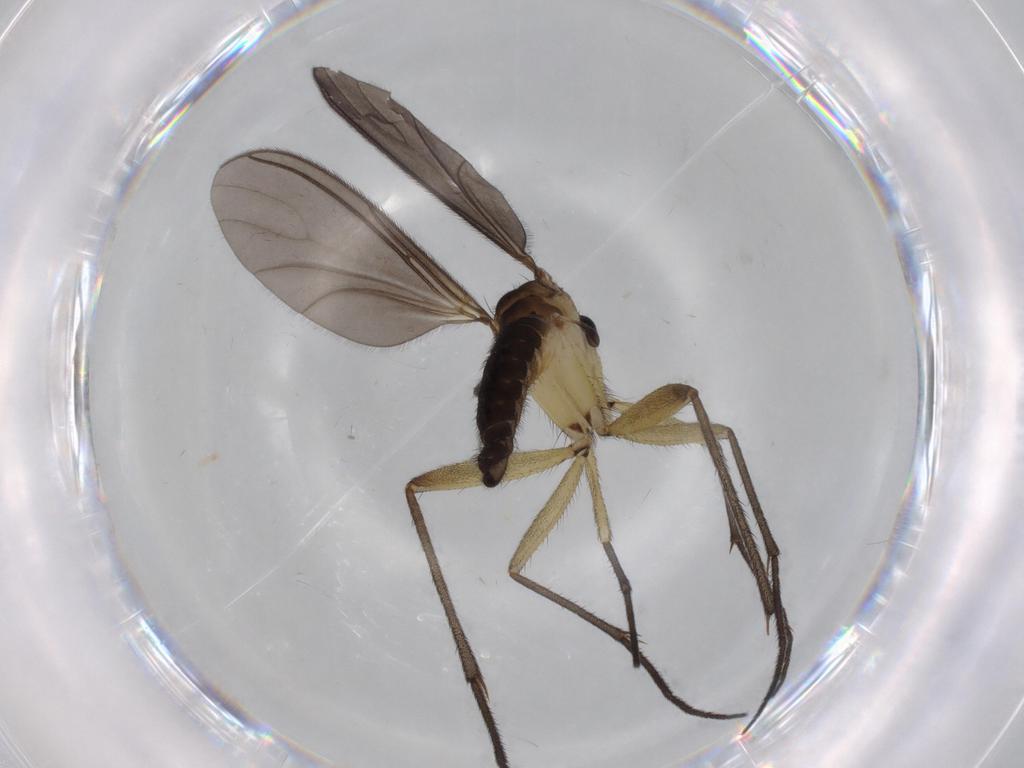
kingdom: Animalia
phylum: Arthropoda
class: Insecta
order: Diptera
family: Sciaridae
